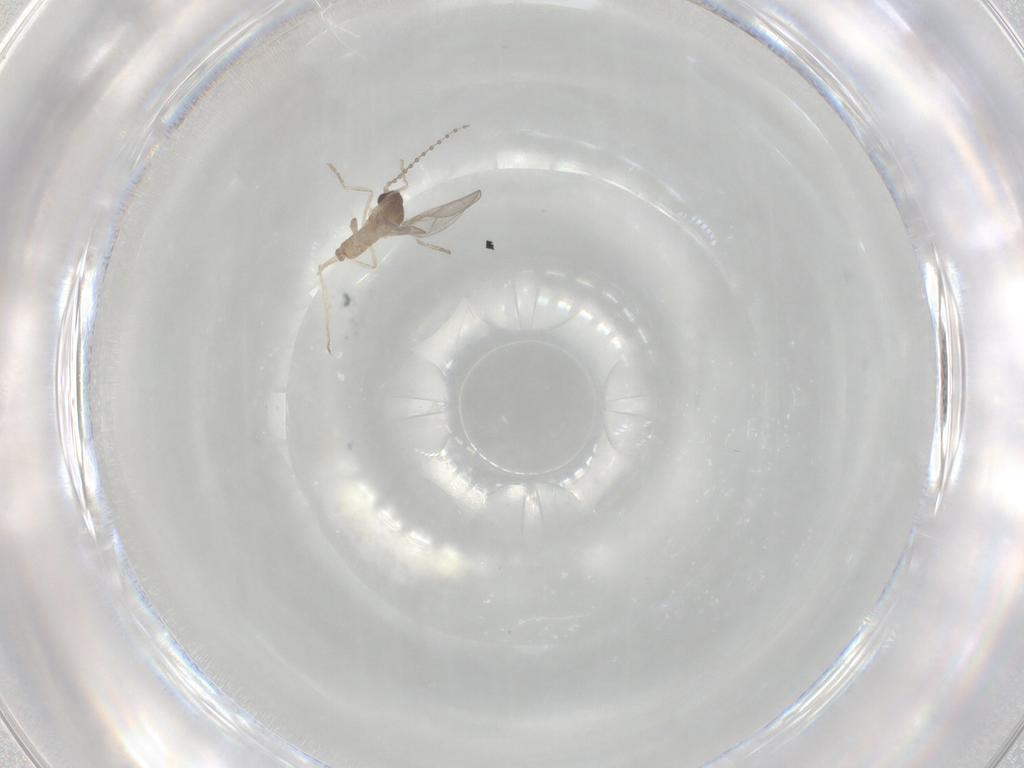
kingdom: Animalia
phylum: Arthropoda
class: Insecta
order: Diptera
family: Cecidomyiidae
